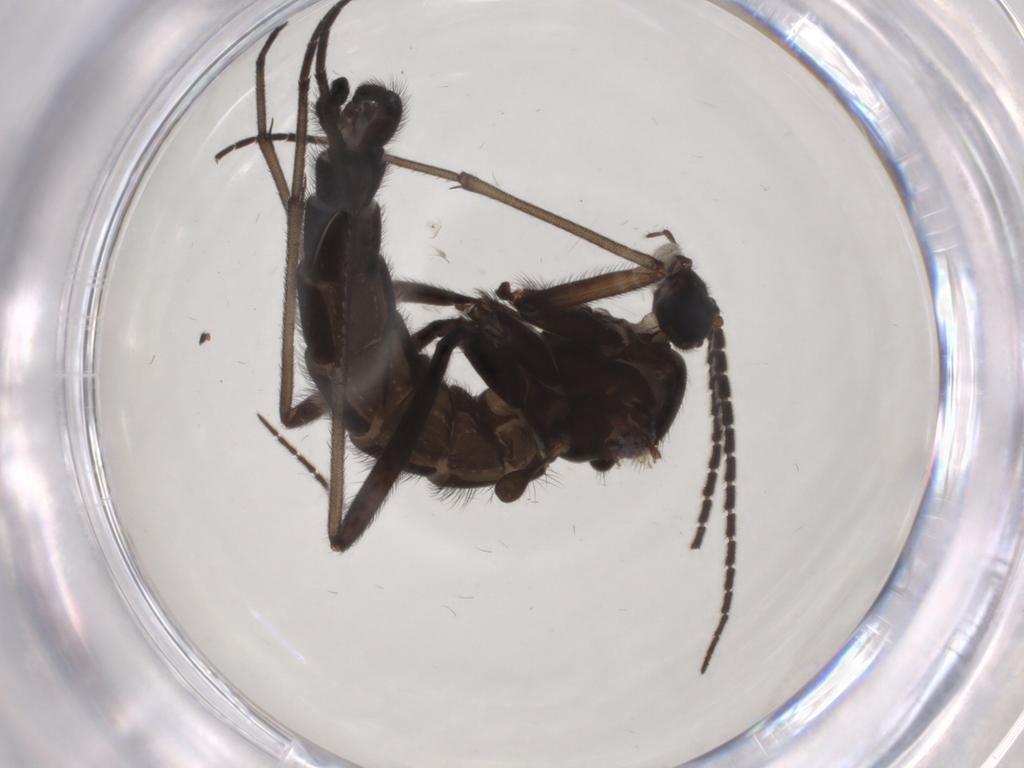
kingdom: Animalia
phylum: Arthropoda
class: Insecta
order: Diptera
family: Sciaridae
